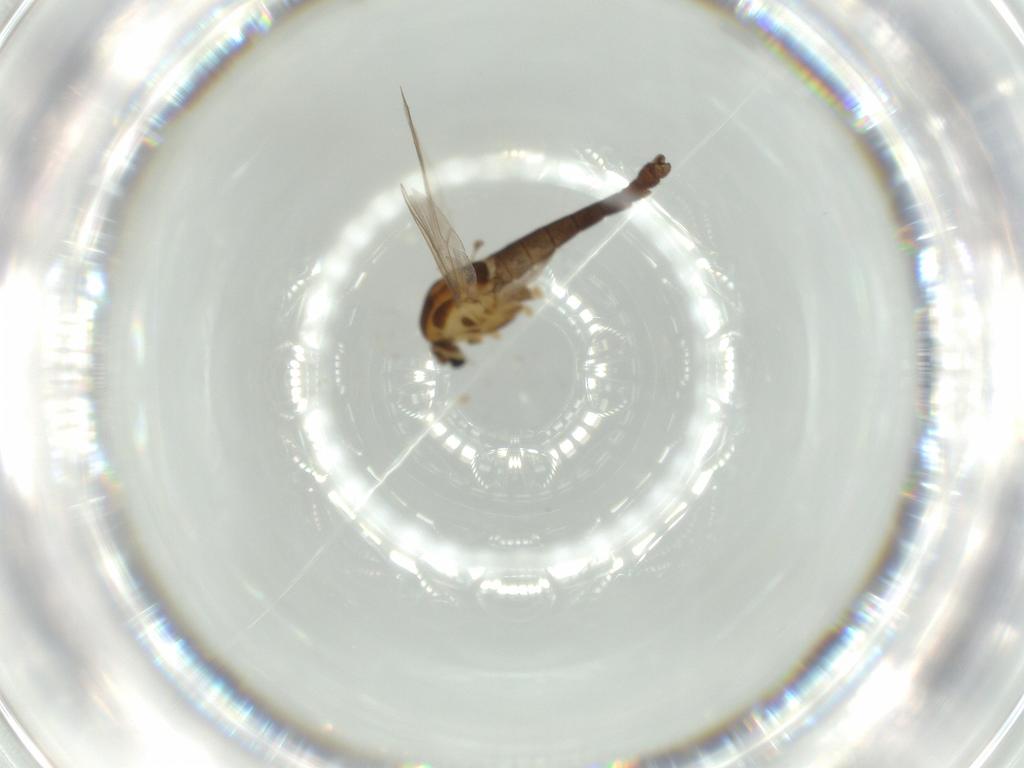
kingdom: Animalia
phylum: Arthropoda
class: Insecta
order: Diptera
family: Chironomidae
